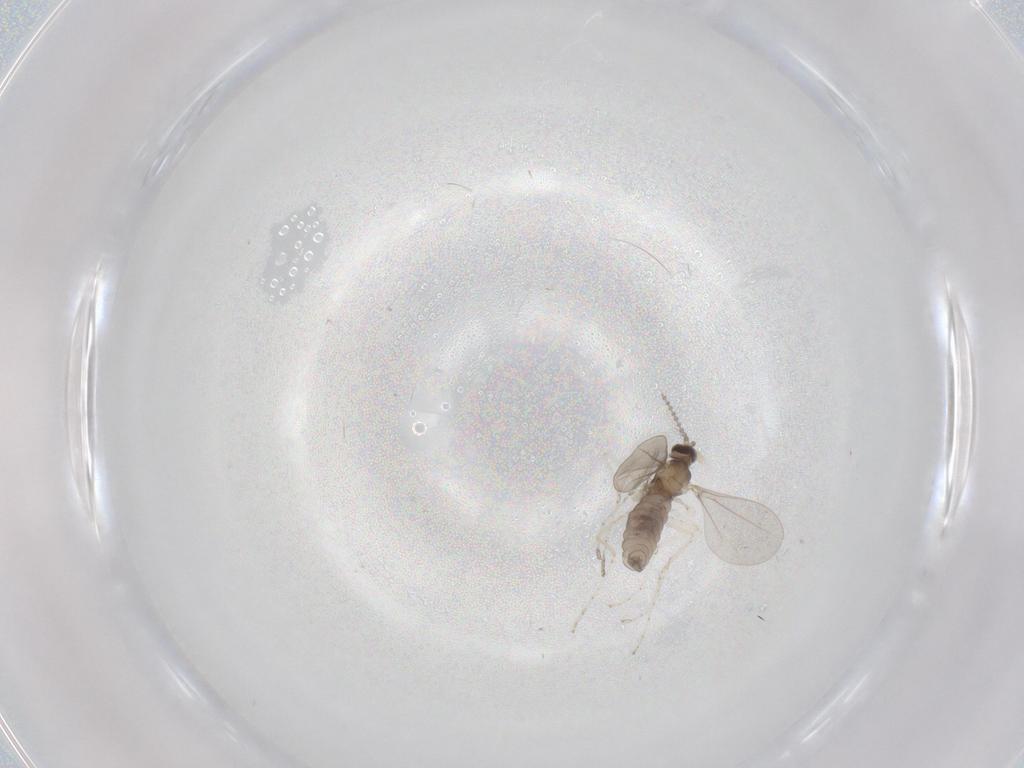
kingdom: Animalia
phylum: Arthropoda
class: Insecta
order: Diptera
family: Cecidomyiidae
